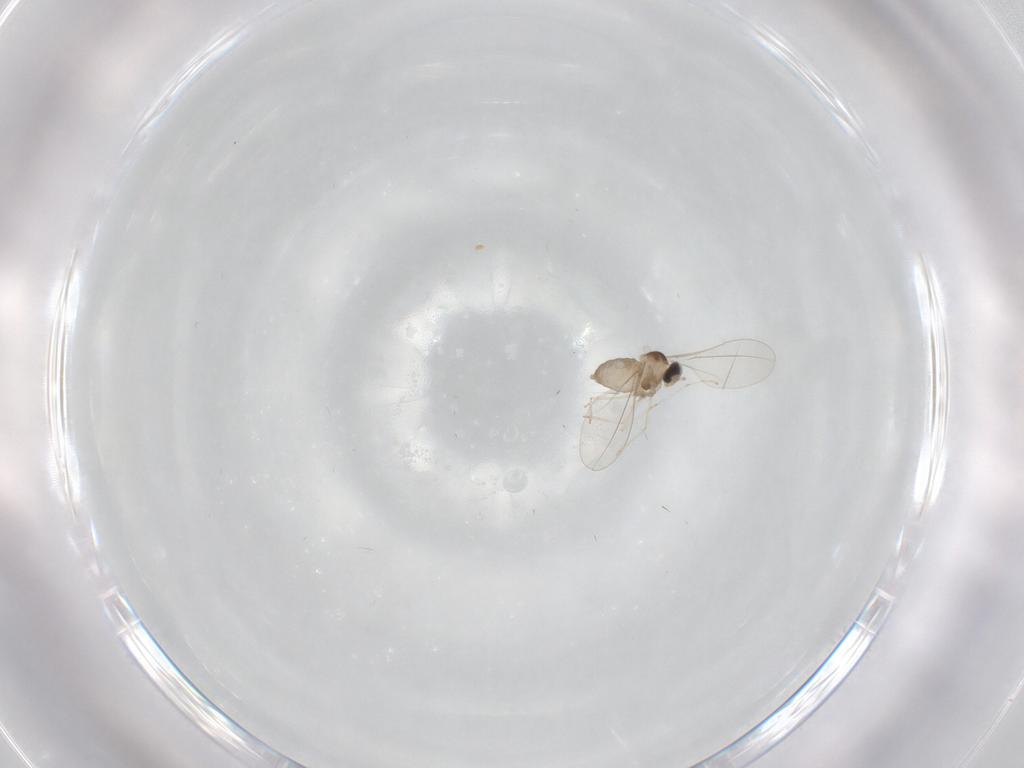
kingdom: Animalia
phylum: Arthropoda
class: Insecta
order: Diptera
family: Cecidomyiidae
